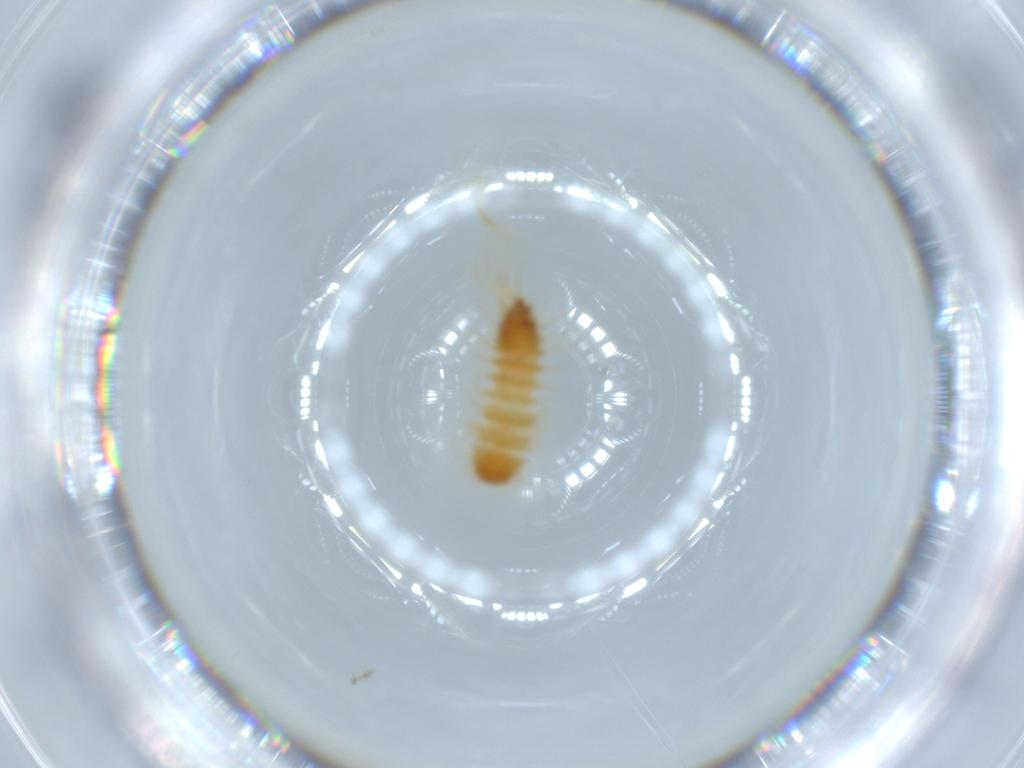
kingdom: Animalia
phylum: Arthropoda
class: Insecta
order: Coleoptera
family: Dermestidae
